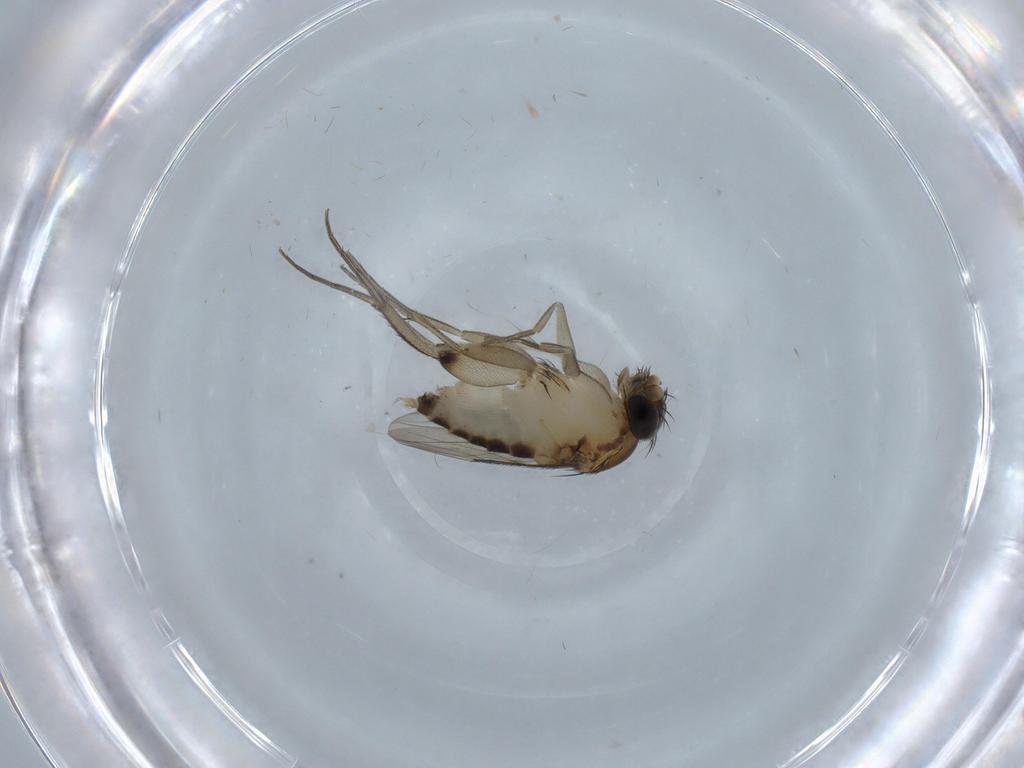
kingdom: Animalia
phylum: Arthropoda
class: Insecta
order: Diptera
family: Phoridae
